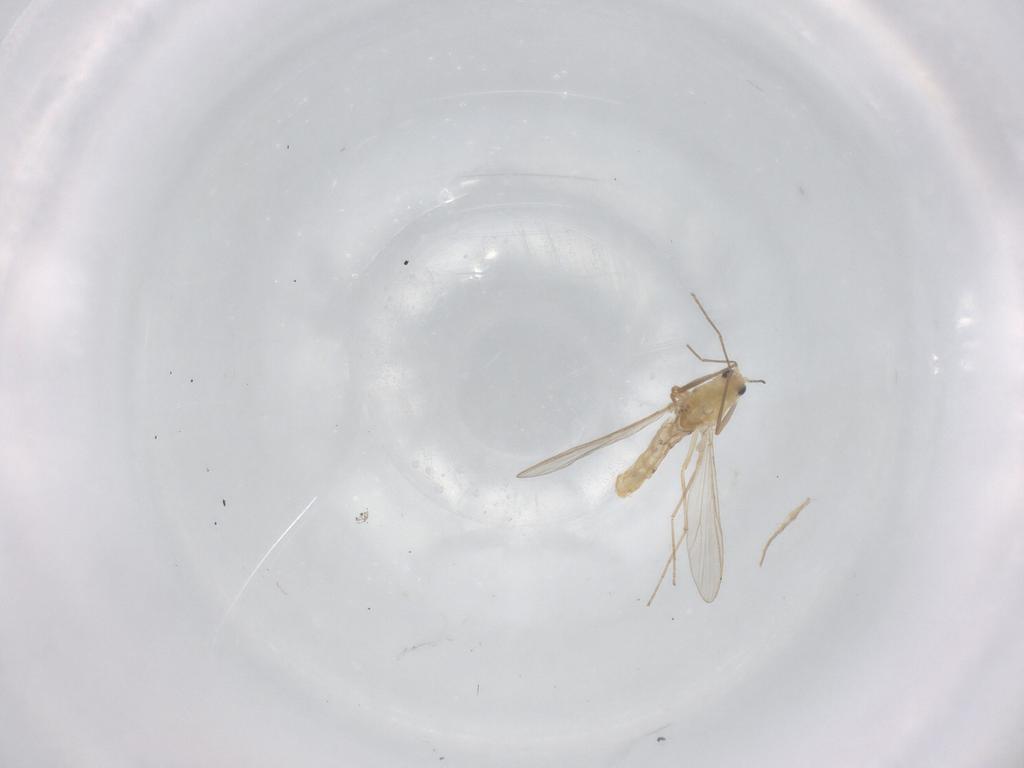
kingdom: Animalia
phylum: Arthropoda
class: Insecta
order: Diptera
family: Chironomidae
